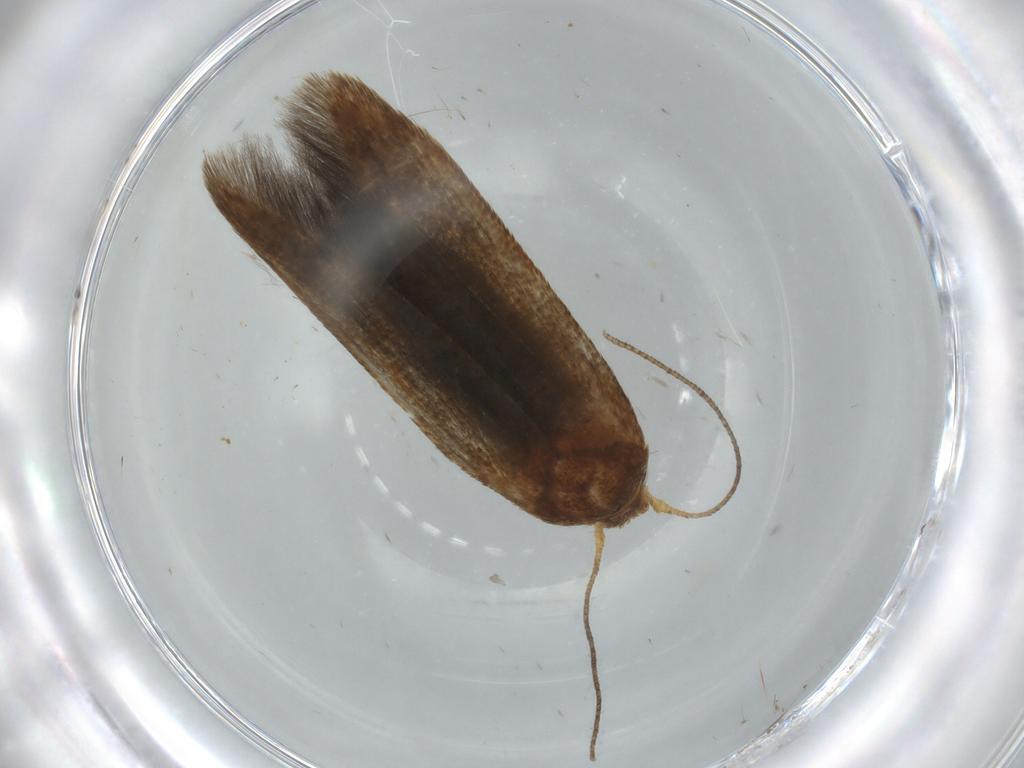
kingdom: Animalia
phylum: Arthropoda
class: Insecta
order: Lepidoptera
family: Blastobasidae
